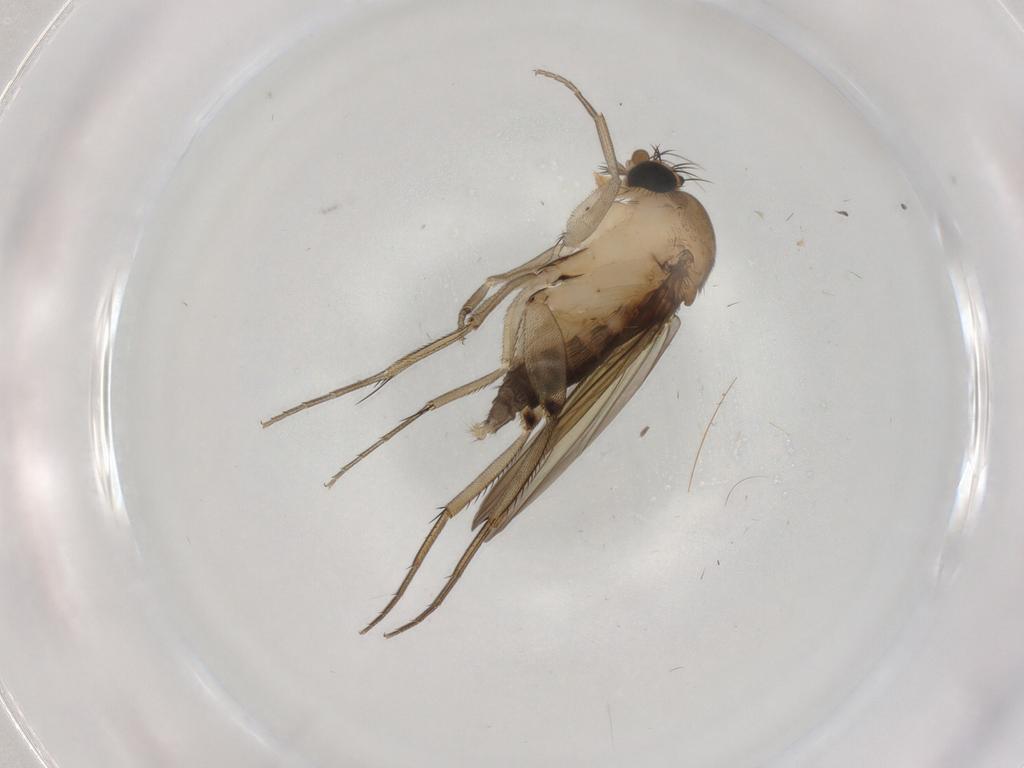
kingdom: Animalia
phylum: Arthropoda
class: Insecta
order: Diptera
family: Phoridae
